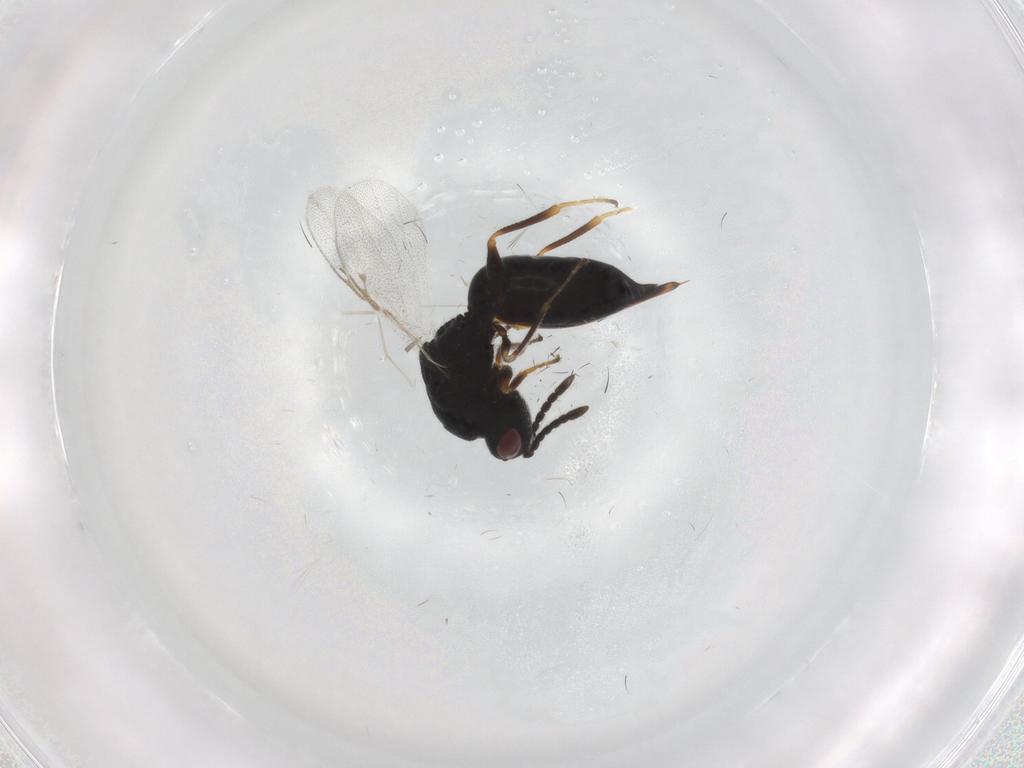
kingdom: Animalia
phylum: Arthropoda
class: Insecta
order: Hymenoptera
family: Eurytomidae
